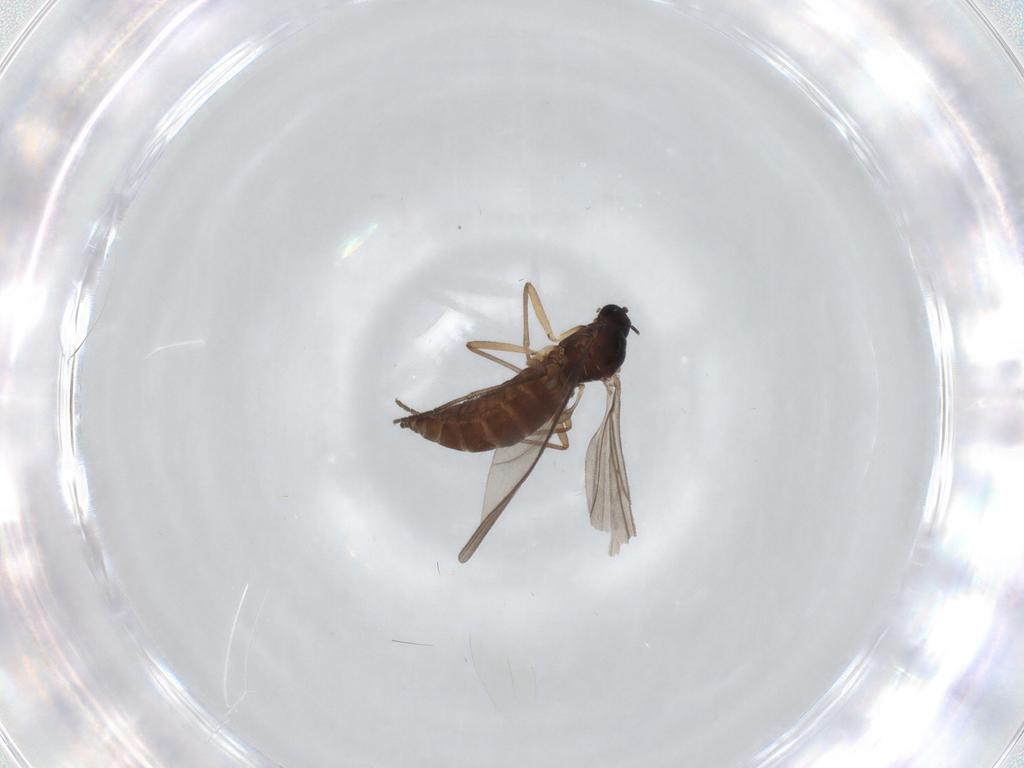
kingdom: Animalia
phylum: Arthropoda
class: Insecta
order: Diptera
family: Sciaridae
